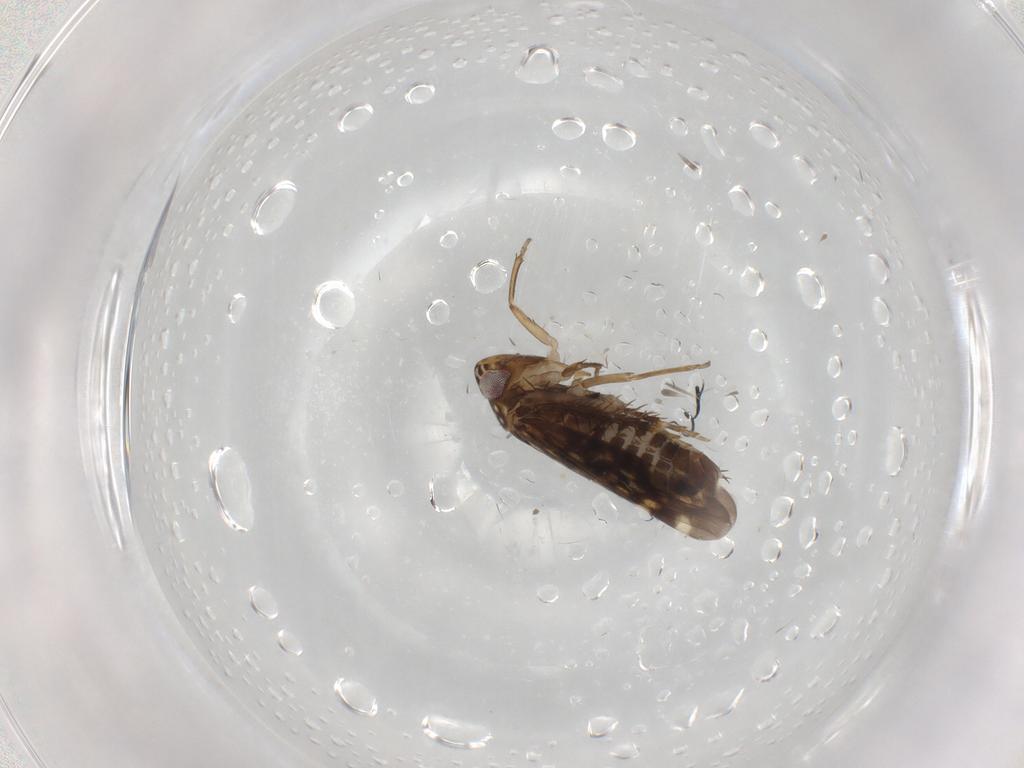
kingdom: Animalia
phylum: Arthropoda
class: Insecta
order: Hemiptera
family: Cicadellidae
